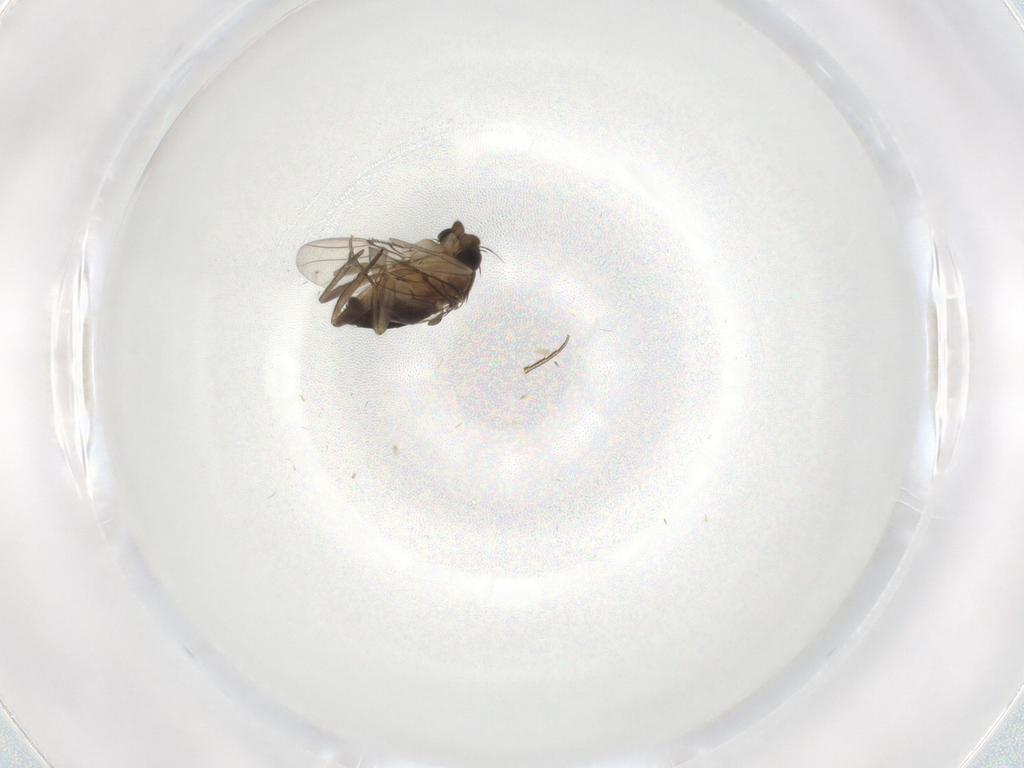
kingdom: Animalia
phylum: Arthropoda
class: Insecta
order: Diptera
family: Phoridae
